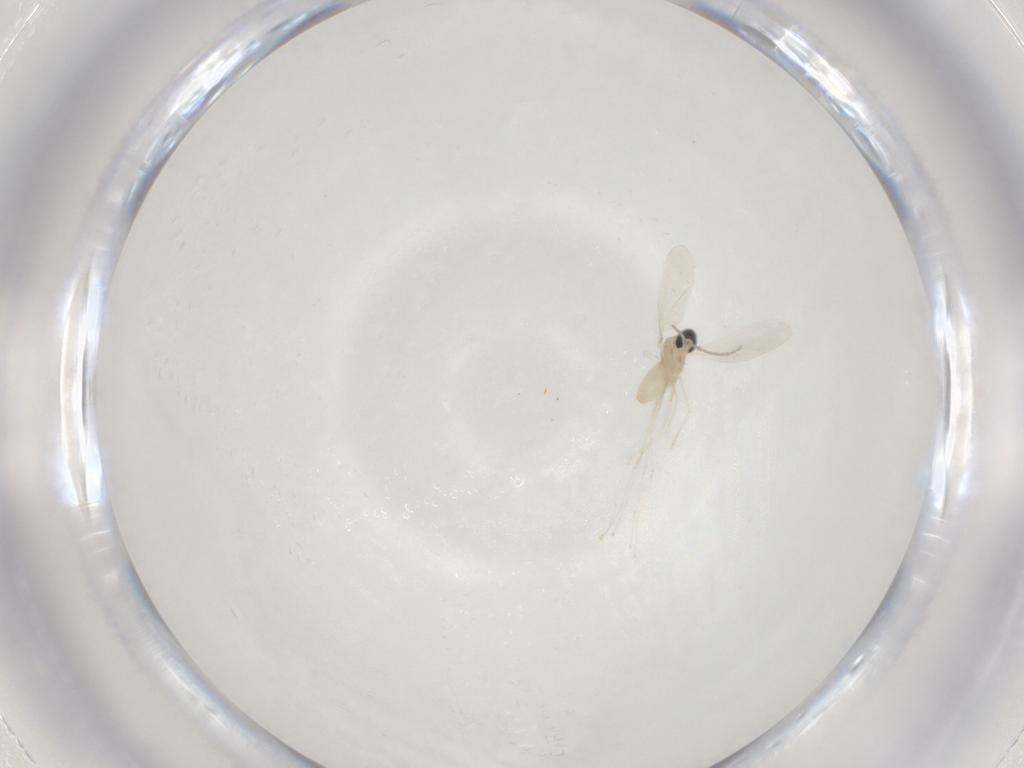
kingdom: Animalia
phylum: Arthropoda
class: Insecta
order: Diptera
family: Cecidomyiidae
